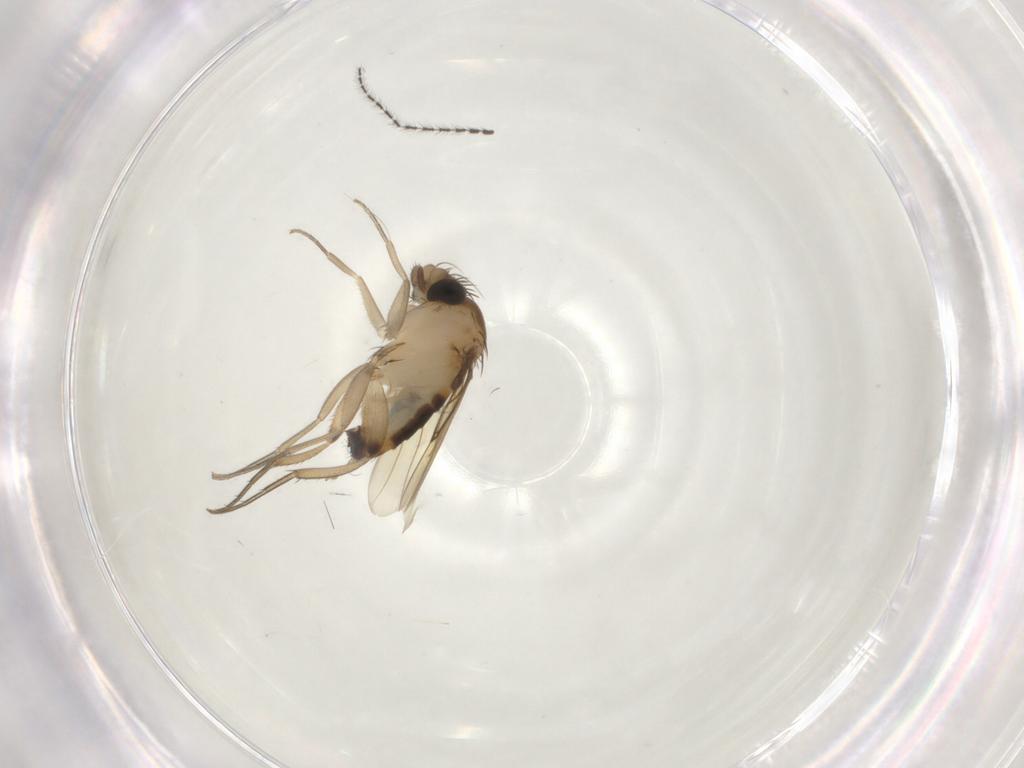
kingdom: Animalia
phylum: Arthropoda
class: Insecta
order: Diptera
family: Phoridae
